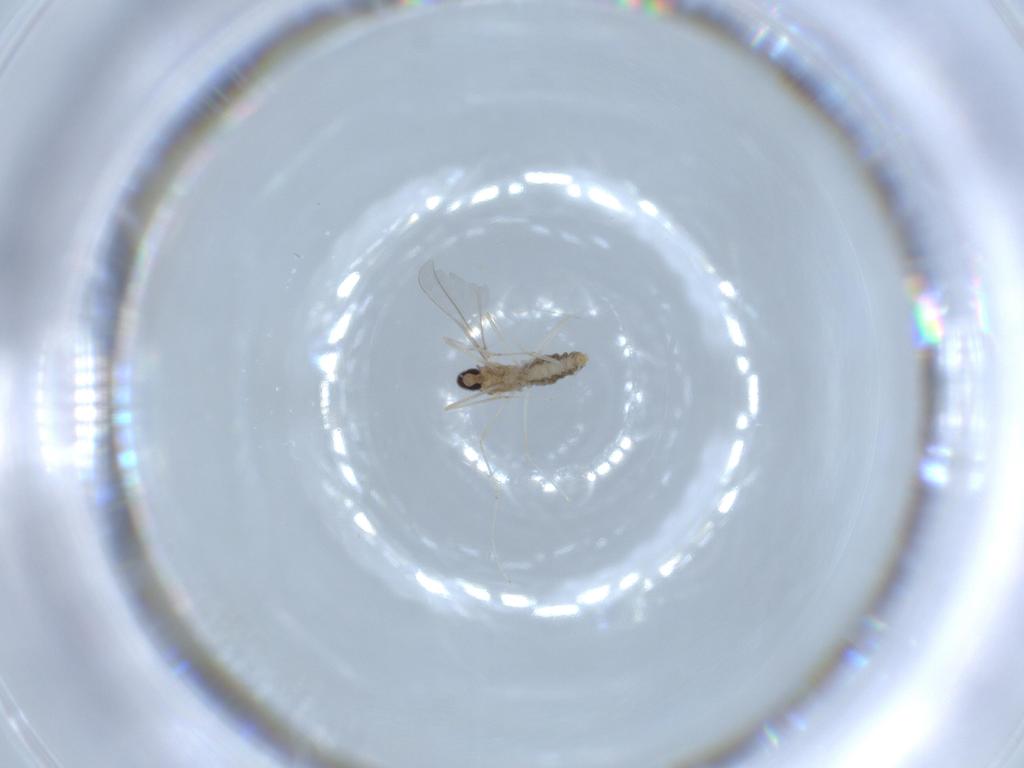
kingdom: Animalia
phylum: Arthropoda
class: Insecta
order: Diptera
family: Cecidomyiidae
